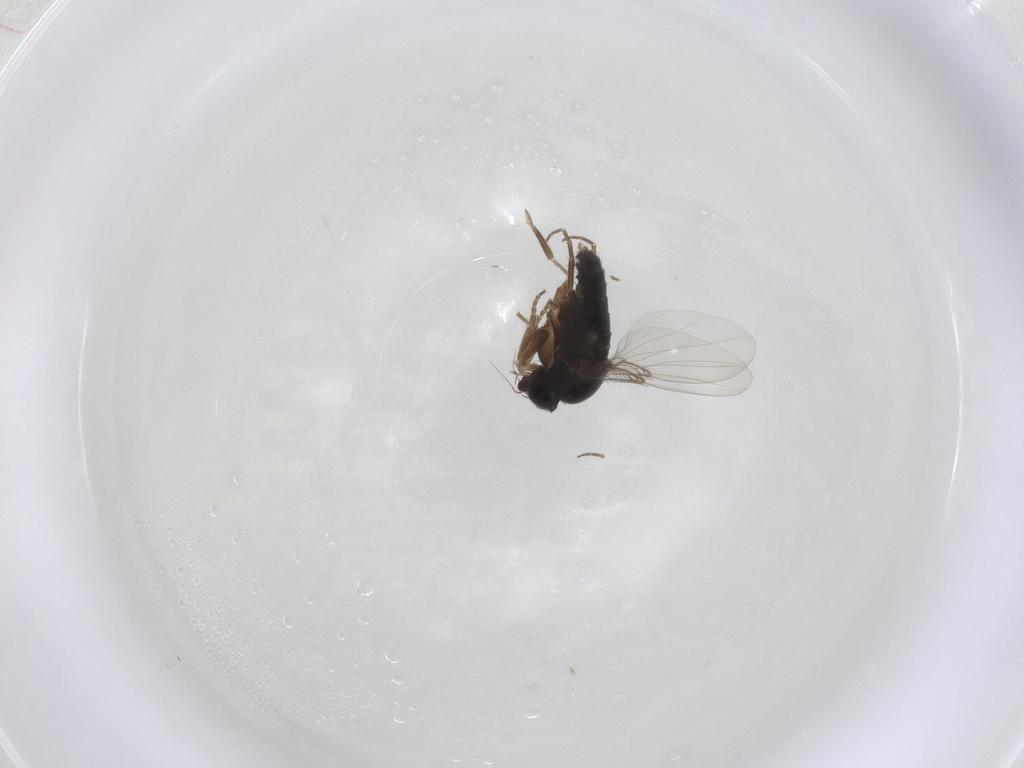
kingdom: Animalia
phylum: Arthropoda
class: Insecta
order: Diptera
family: Phoridae
